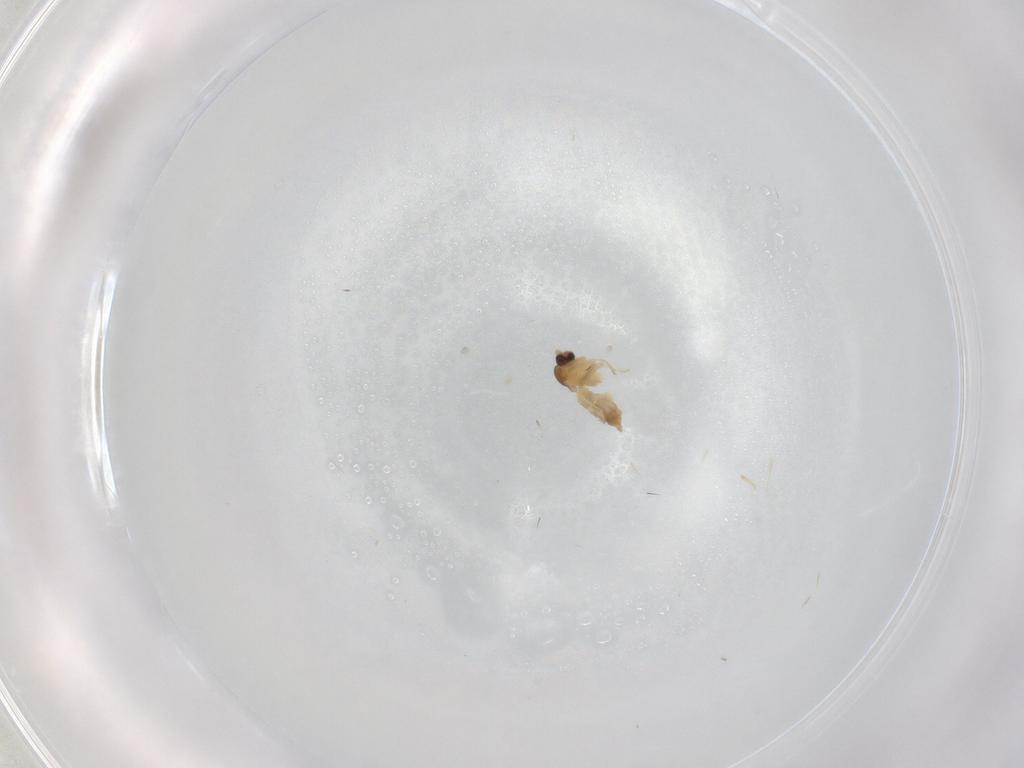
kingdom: Animalia
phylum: Arthropoda
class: Insecta
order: Diptera
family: Cecidomyiidae
